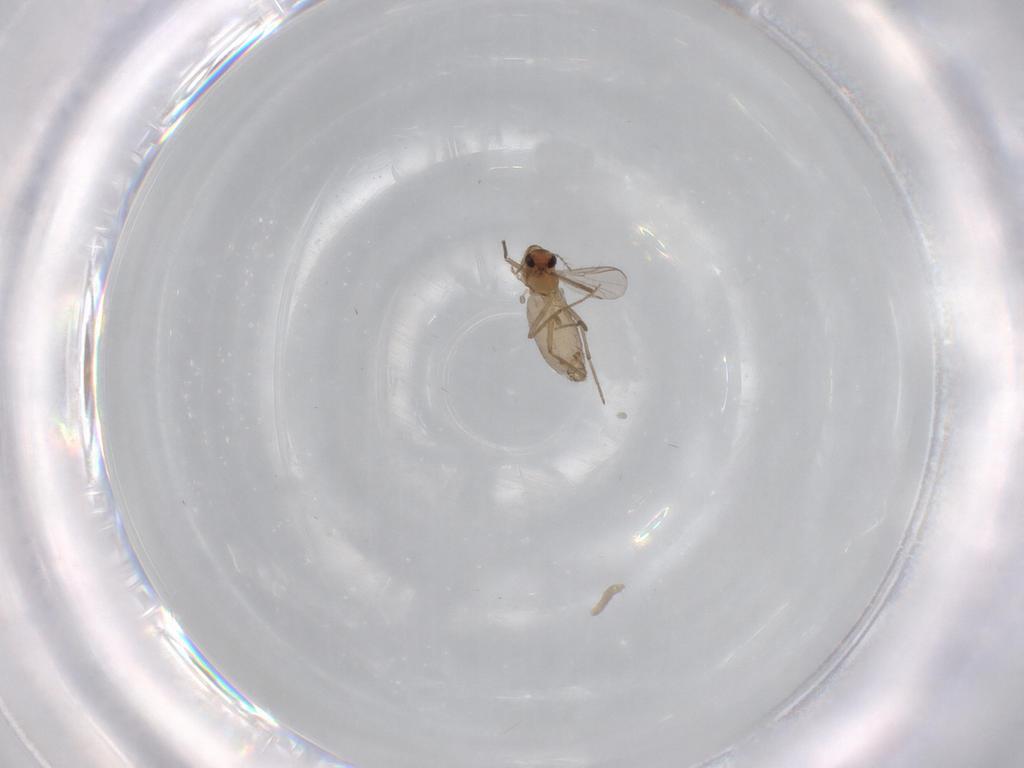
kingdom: Animalia
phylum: Arthropoda
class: Insecta
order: Diptera
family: Chironomidae
